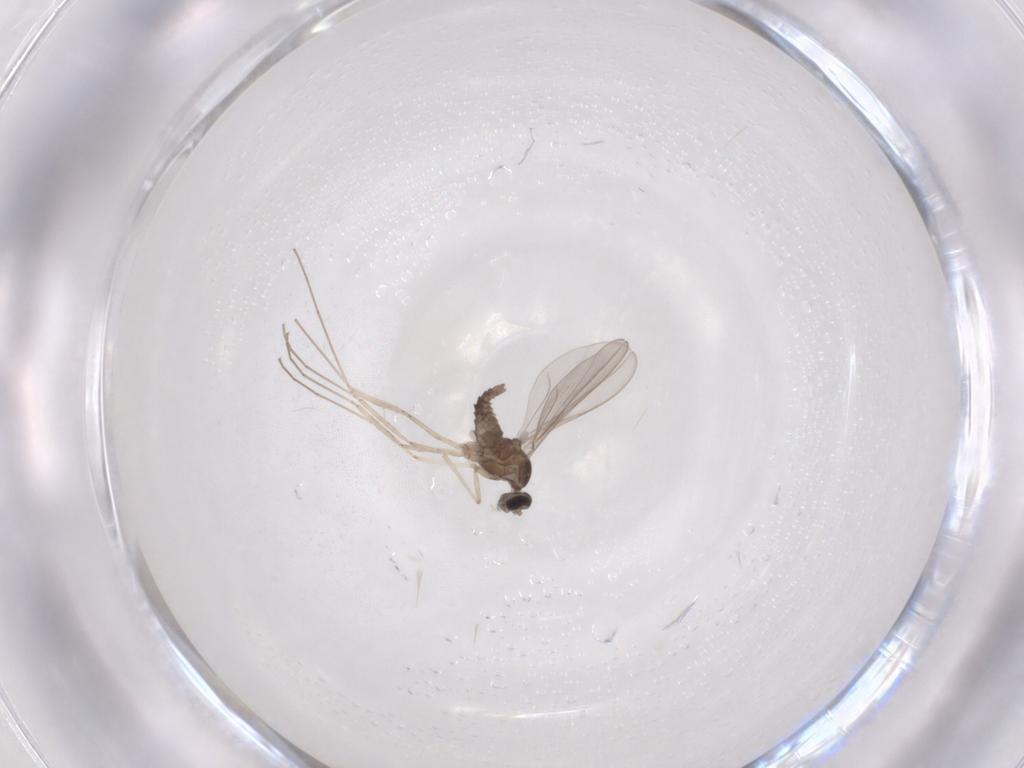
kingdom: Animalia
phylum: Arthropoda
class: Insecta
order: Diptera
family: Sciaridae
